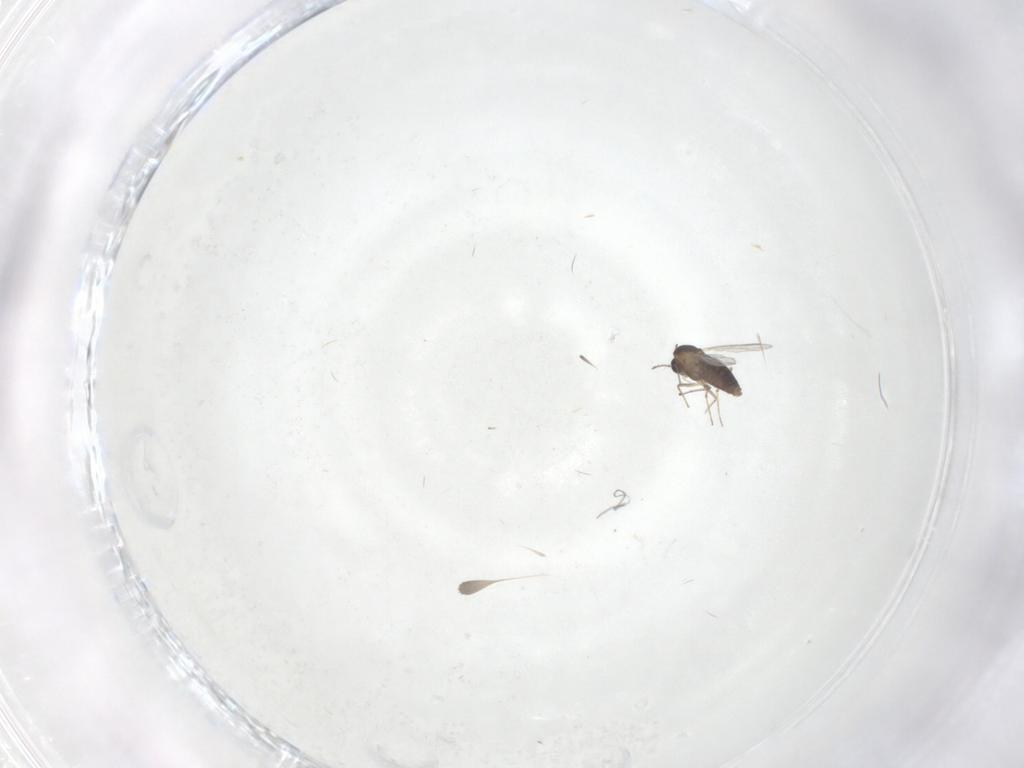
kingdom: Animalia
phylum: Arthropoda
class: Insecta
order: Diptera
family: Chironomidae
